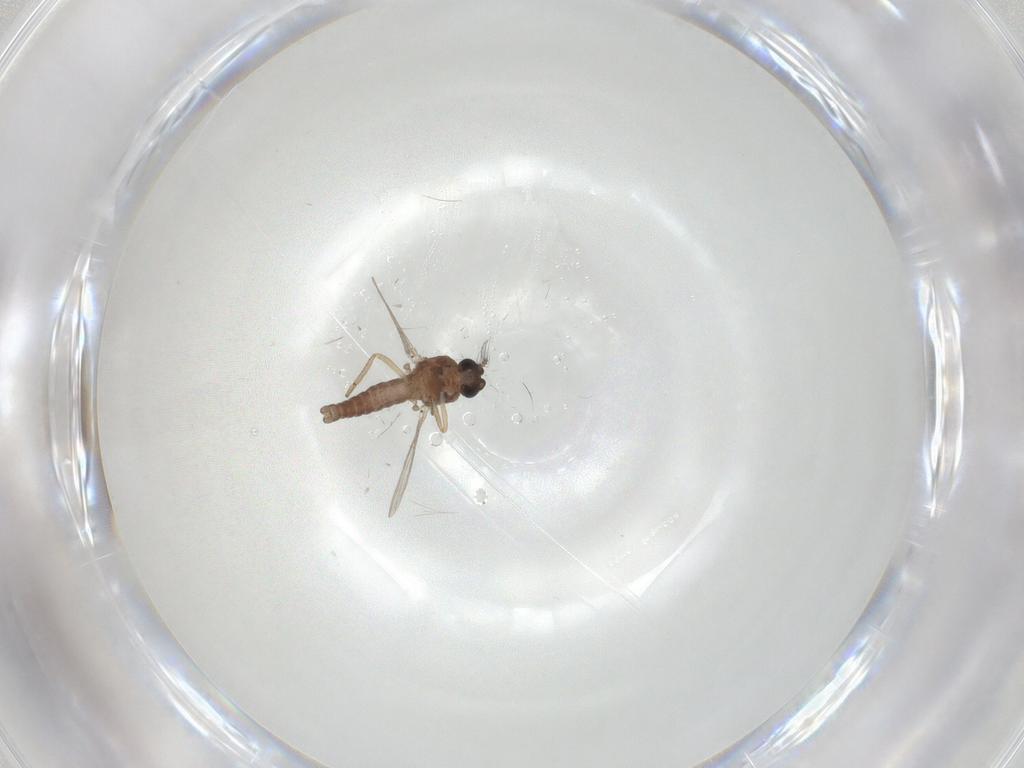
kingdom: Animalia
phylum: Arthropoda
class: Insecta
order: Diptera
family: Ceratopogonidae
